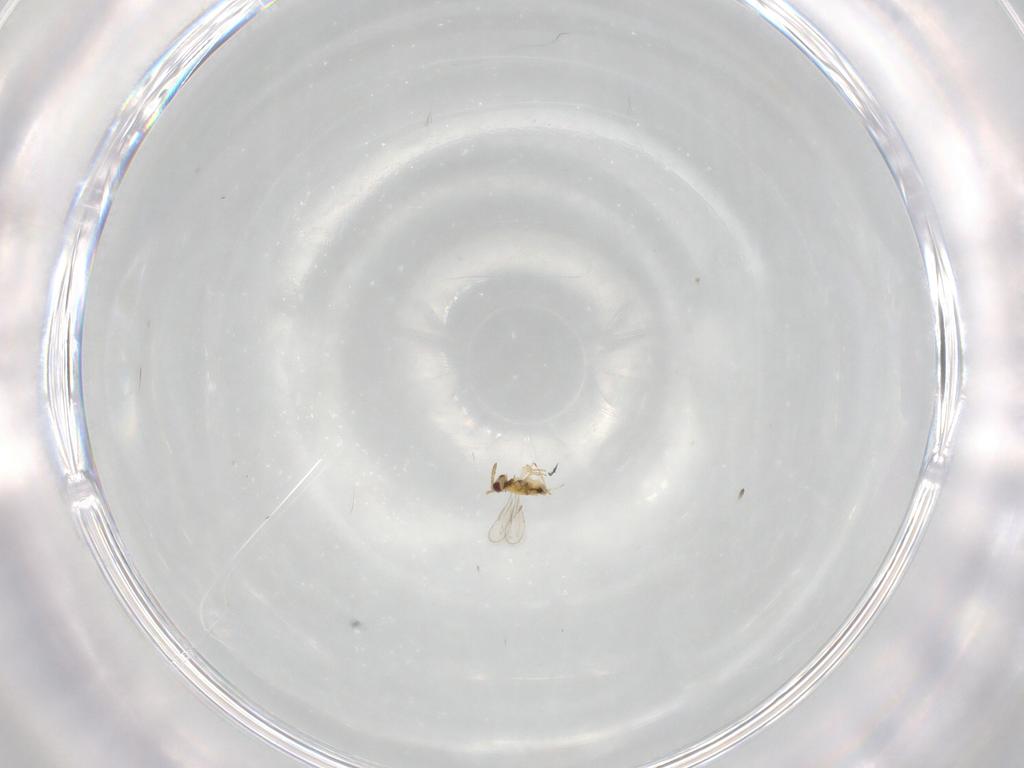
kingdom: Animalia
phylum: Arthropoda
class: Insecta
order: Hymenoptera
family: Aphelinidae
